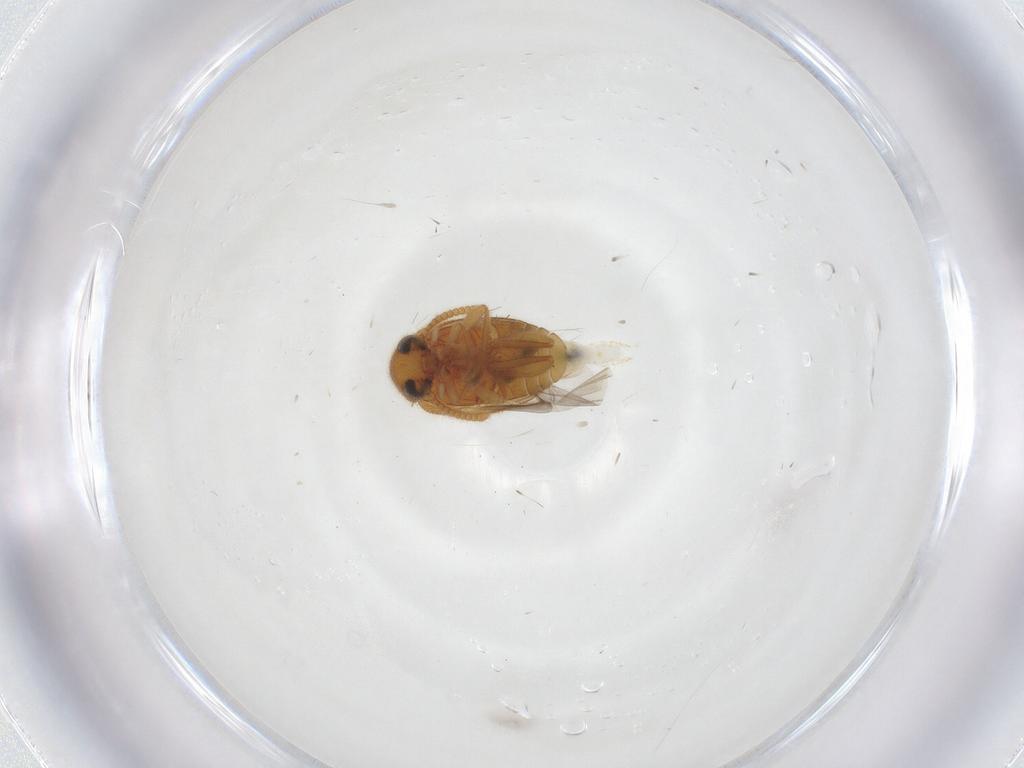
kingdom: Animalia
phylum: Arthropoda
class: Insecta
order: Coleoptera
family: Aderidae
